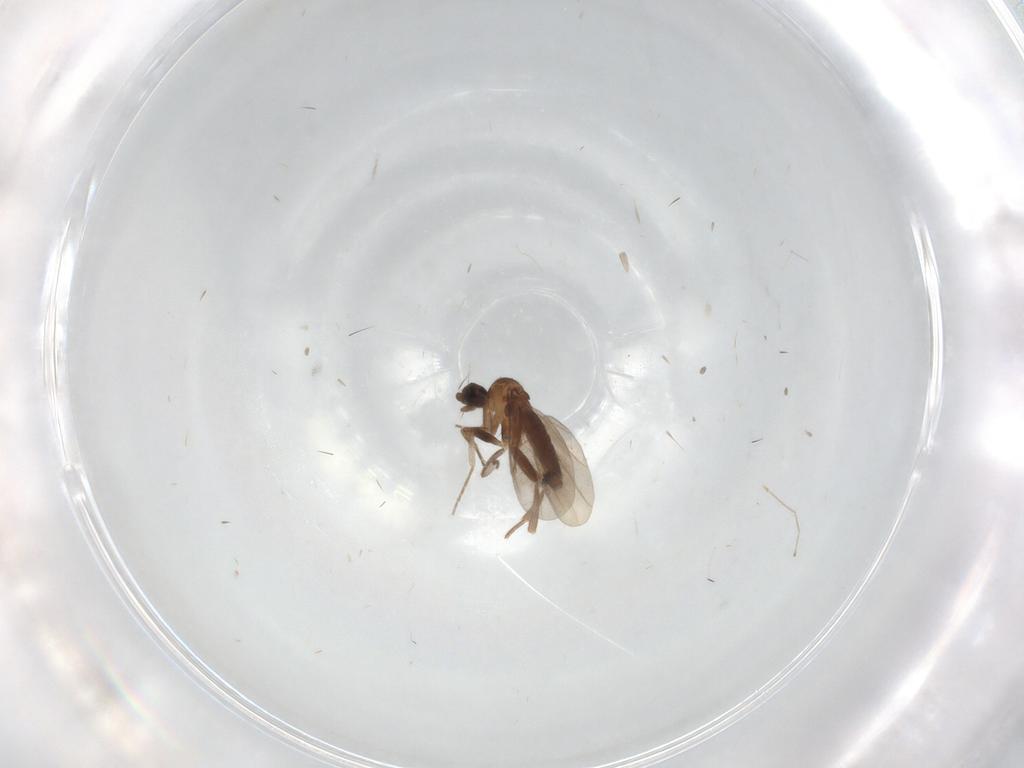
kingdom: Animalia
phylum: Arthropoda
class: Insecta
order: Diptera
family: Cecidomyiidae
